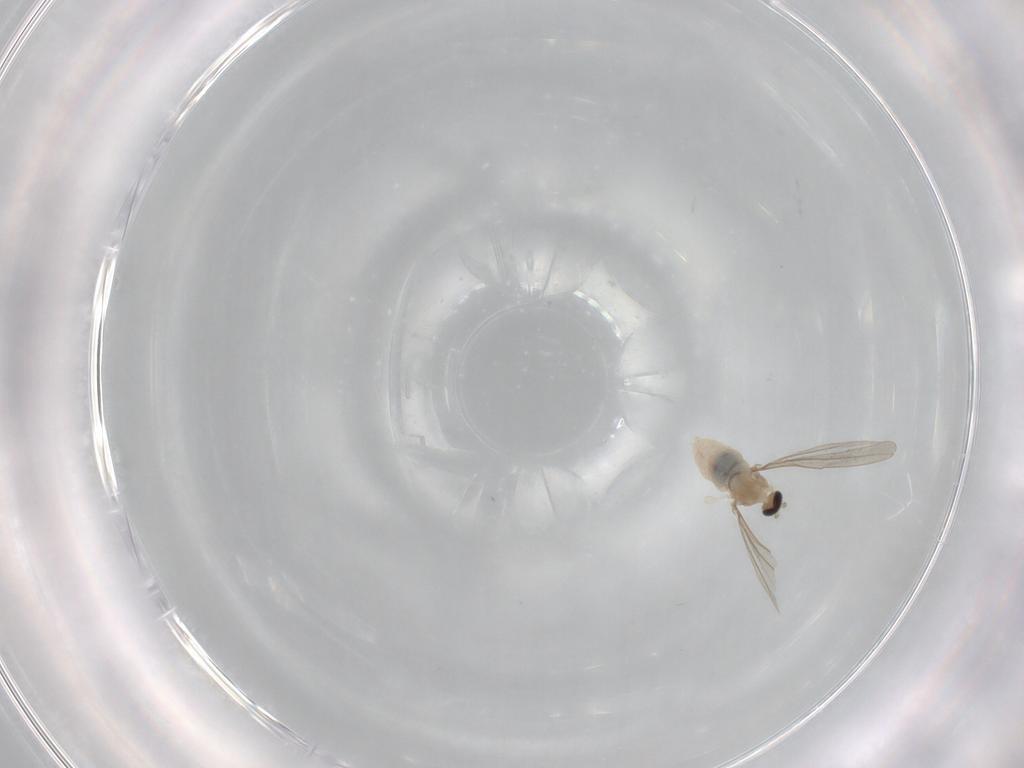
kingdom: Animalia
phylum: Arthropoda
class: Insecta
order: Diptera
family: Cecidomyiidae
